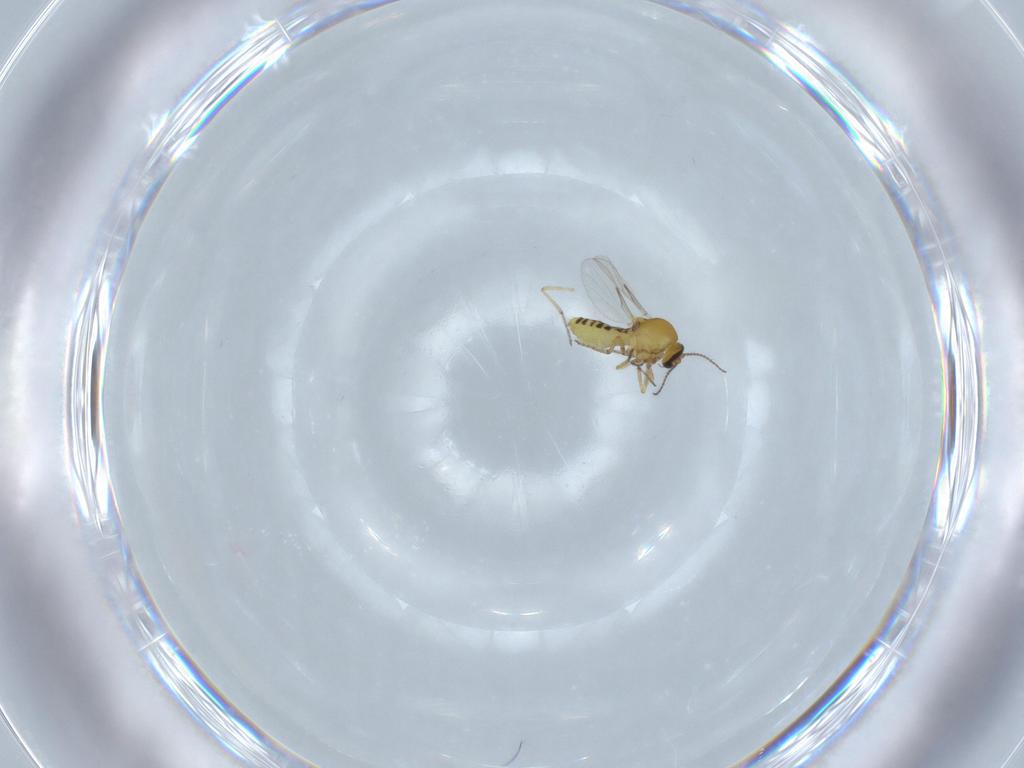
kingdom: Animalia
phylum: Arthropoda
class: Insecta
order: Diptera
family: Ceratopogonidae
